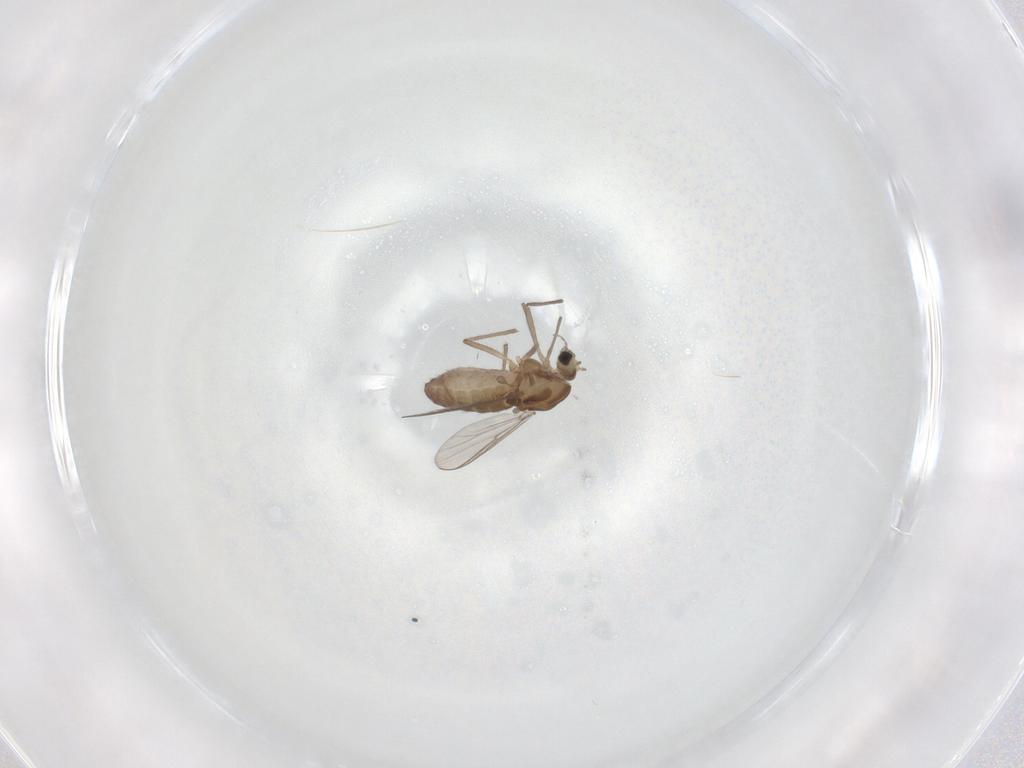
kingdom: Animalia
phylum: Arthropoda
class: Insecta
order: Diptera
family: Chironomidae
